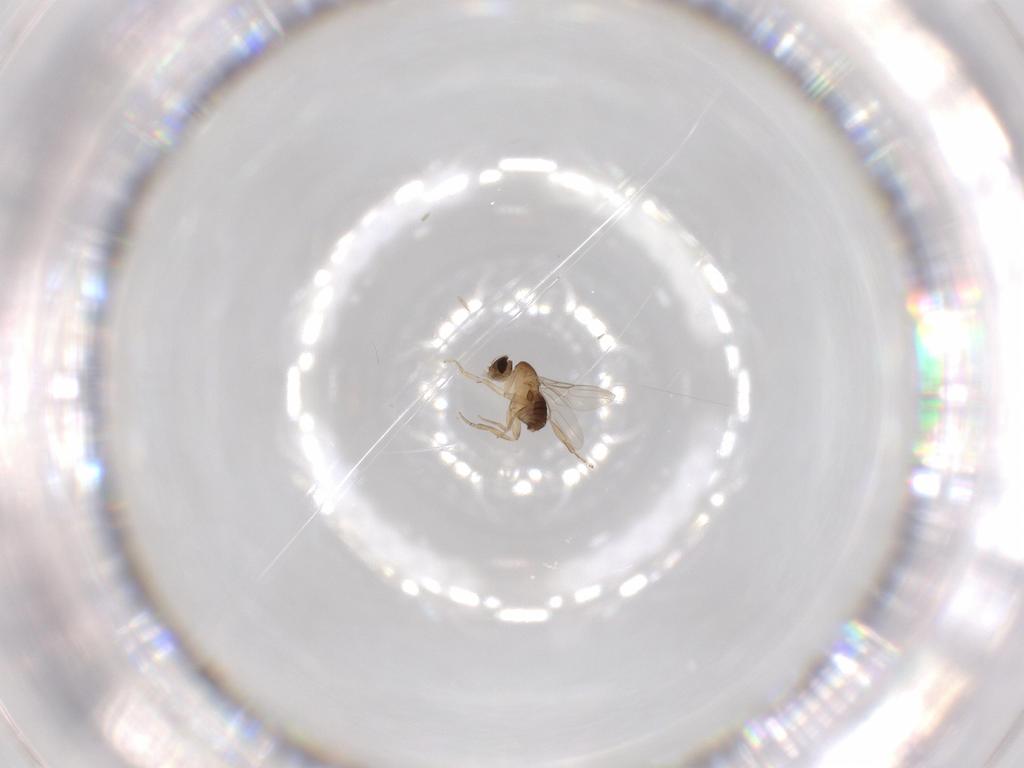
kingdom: Animalia
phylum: Arthropoda
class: Insecta
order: Diptera
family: Phoridae
